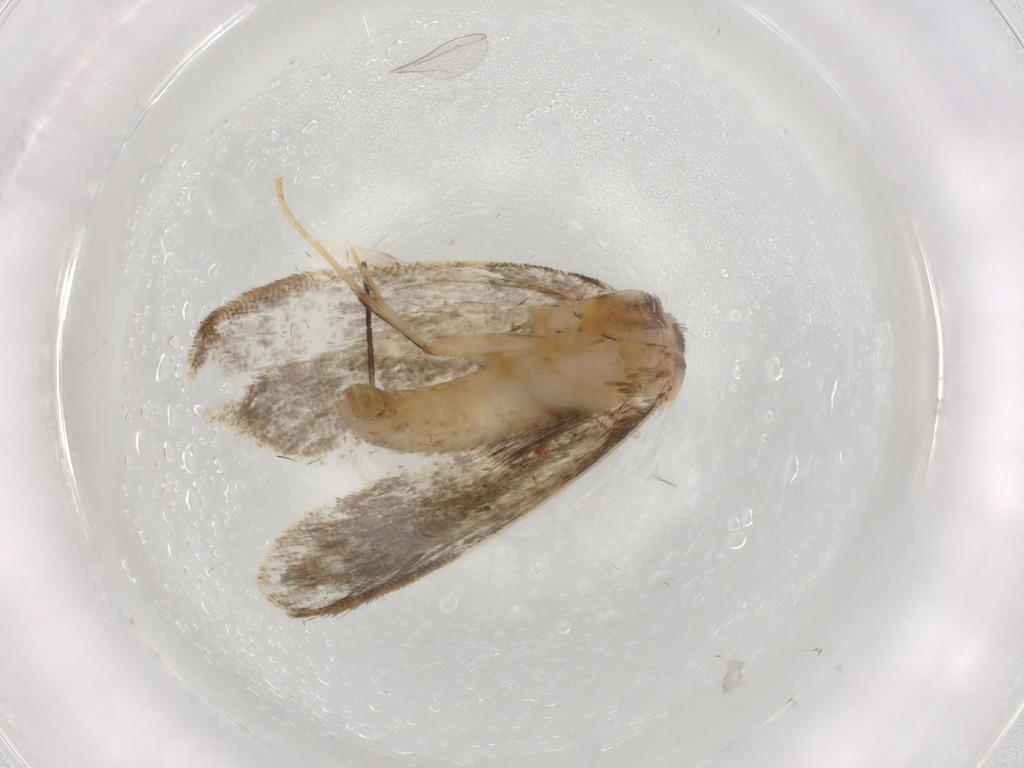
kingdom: Animalia
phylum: Arthropoda
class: Insecta
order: Lepidoptera
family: Psychidae
